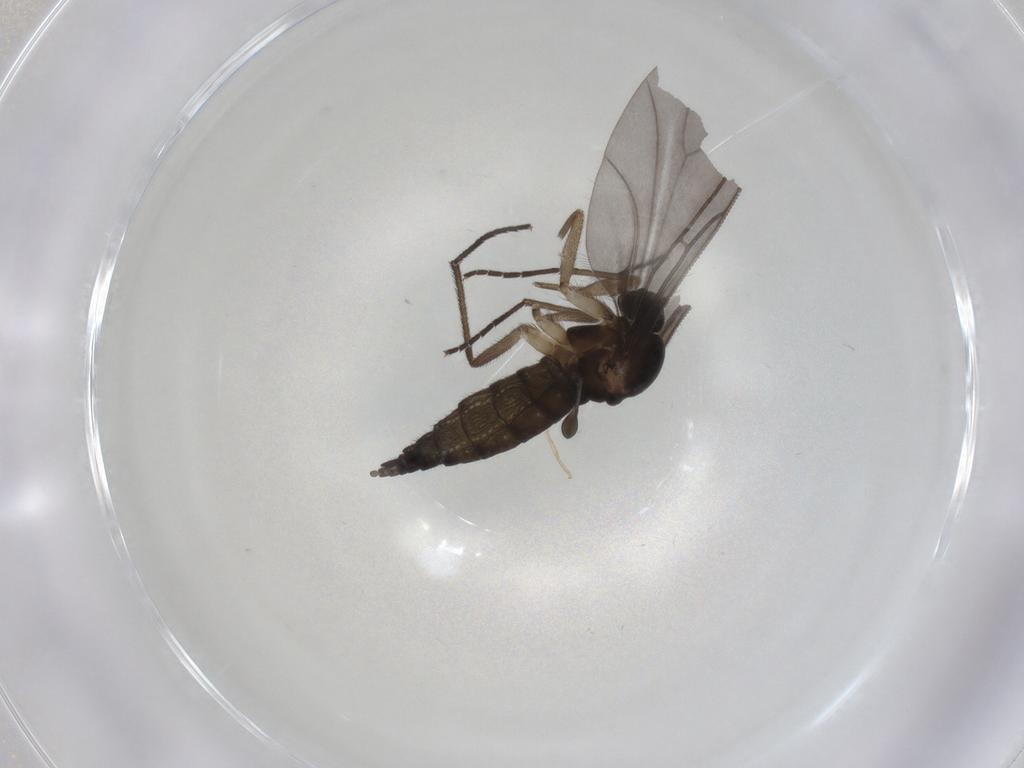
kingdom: Animalia
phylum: Arthropoda
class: Insecta
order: Diptera
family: Sciaridae
